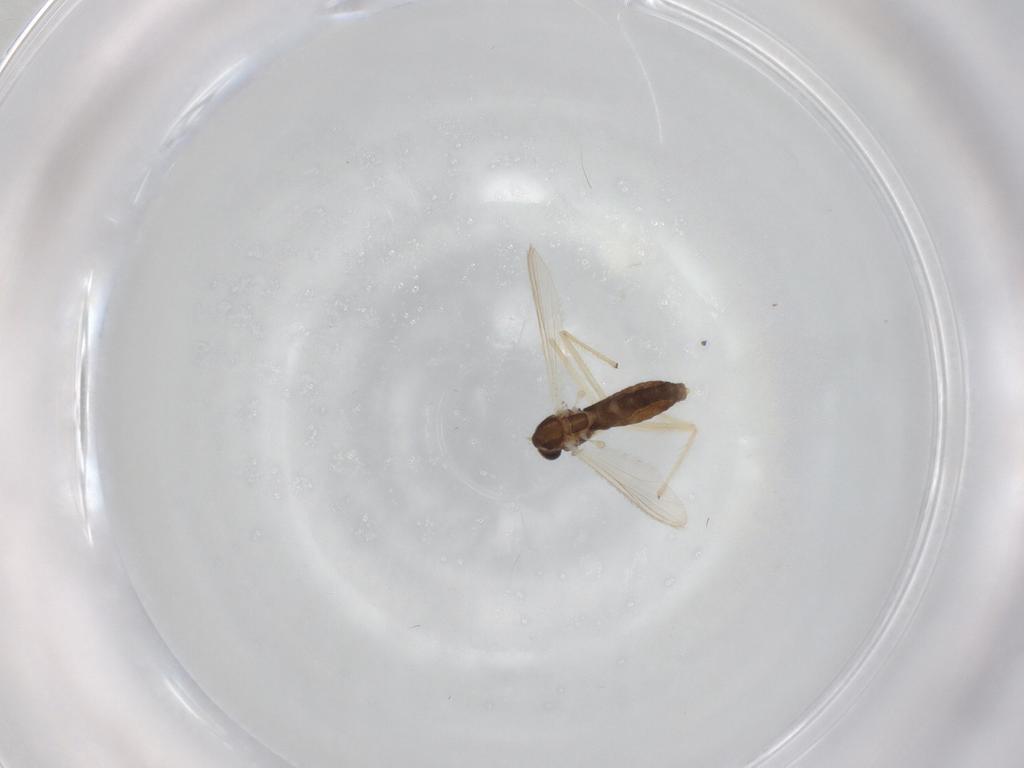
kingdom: Animalia
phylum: Arthropoda
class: Insecta
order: Diptera
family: Chironomidae
